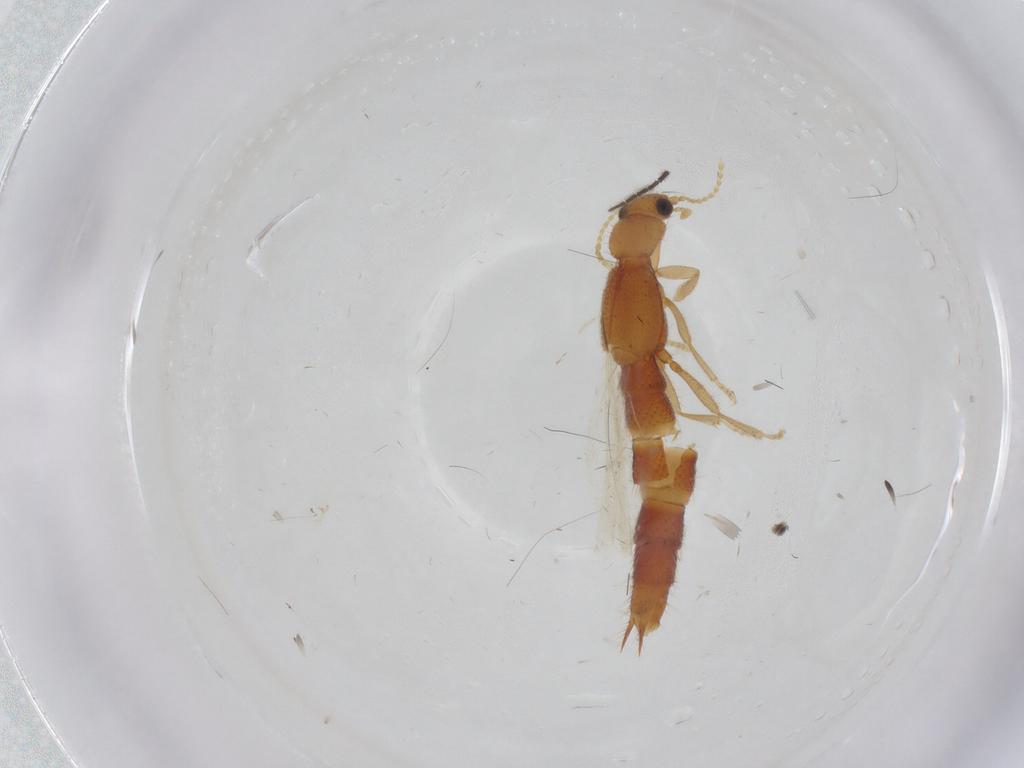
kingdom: Animalia
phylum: Arthropoda
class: Insecta
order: Coleoptera
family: Staphylinidae
